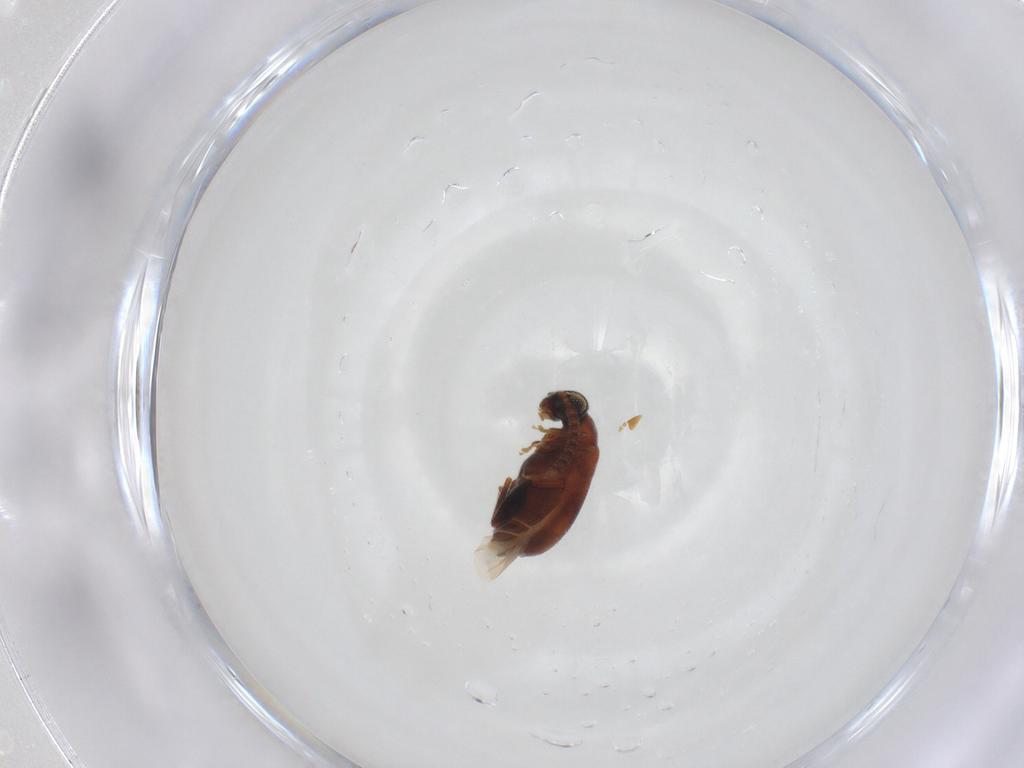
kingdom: Animalia
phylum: Arthropoda
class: Insecta
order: Coleoptera
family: Aderidae
